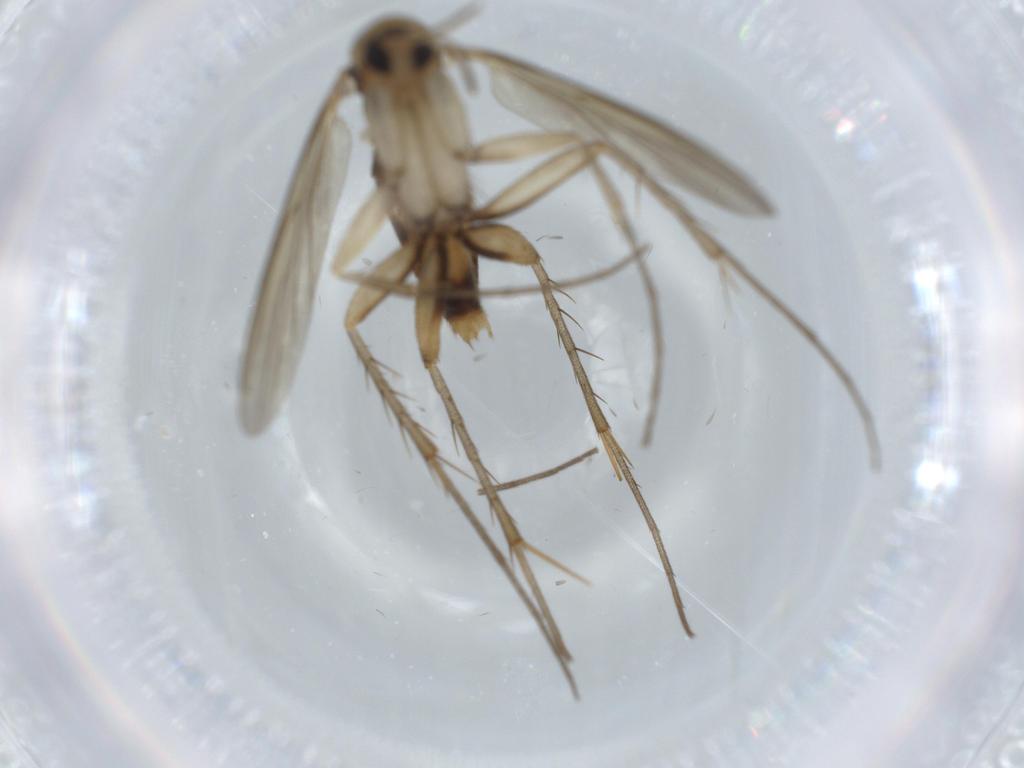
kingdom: Animalia
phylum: Arthropoda
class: Insecta
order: Diptera
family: Mycetophilidae
